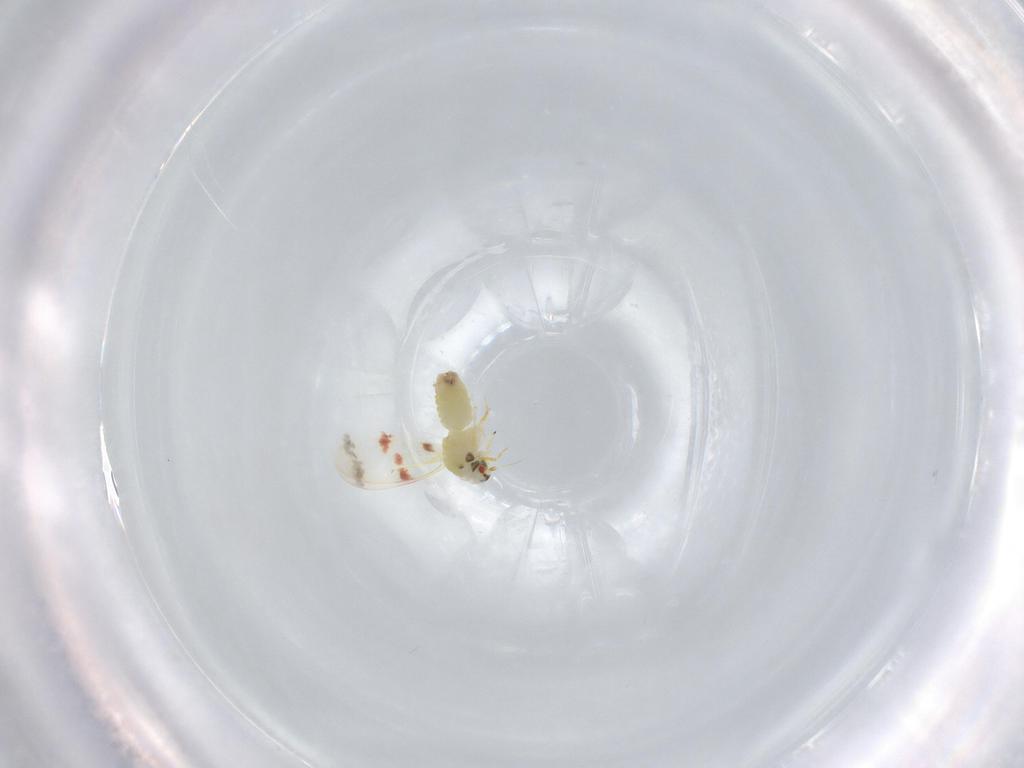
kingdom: Animalia
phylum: Arthropoda
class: Insecta
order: Hemiptera
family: Aleyrodidae
